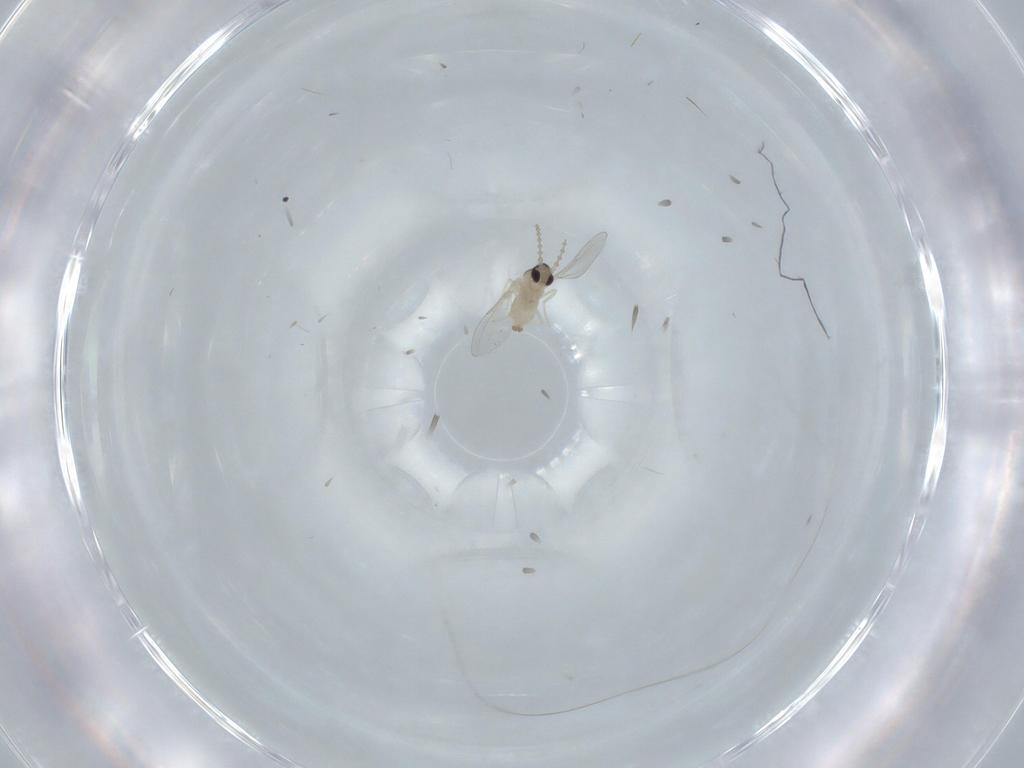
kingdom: Animalia
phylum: Arthropoda
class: Insecta
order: Diptera
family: Cecidomyiidae
